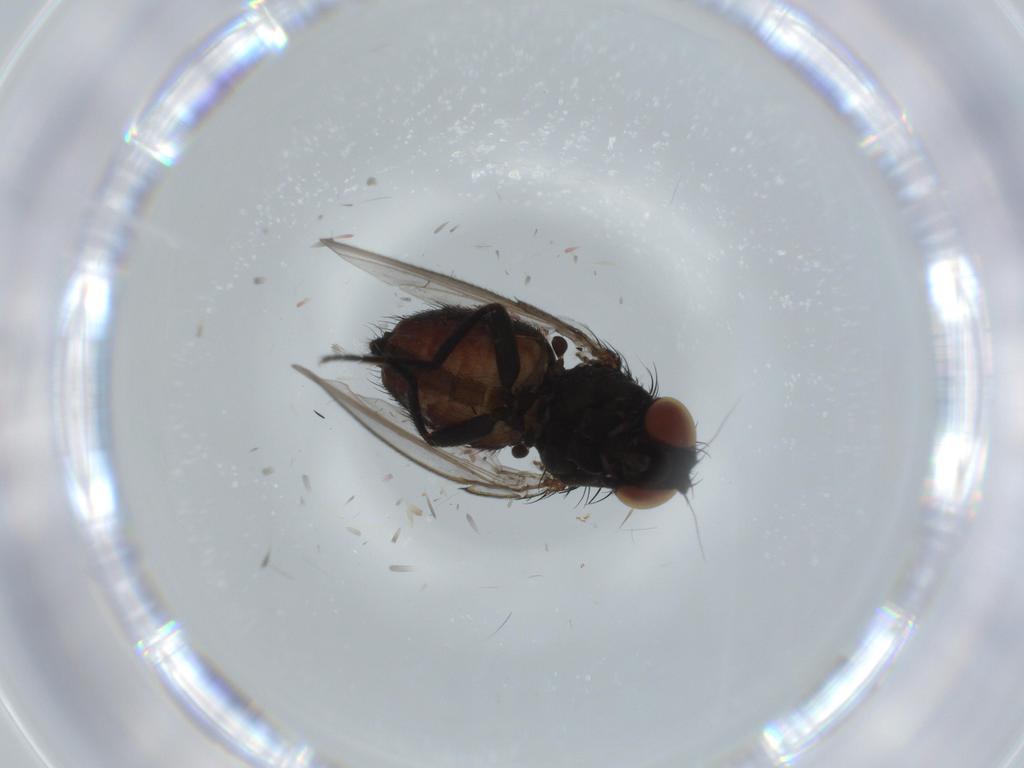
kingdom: Animalia
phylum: Arthropoda
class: Insecta
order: Diptera
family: Milichiidae
